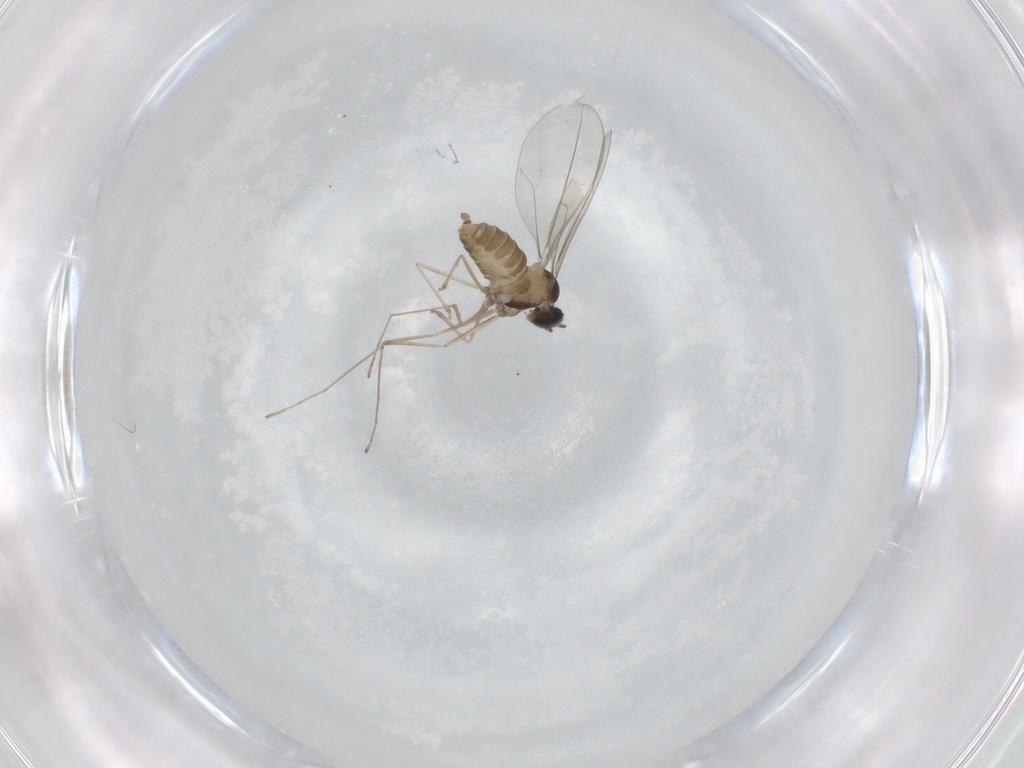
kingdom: Animalia
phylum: Arthropoda
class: Insecta
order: Diptera
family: Cecidomyiidae
